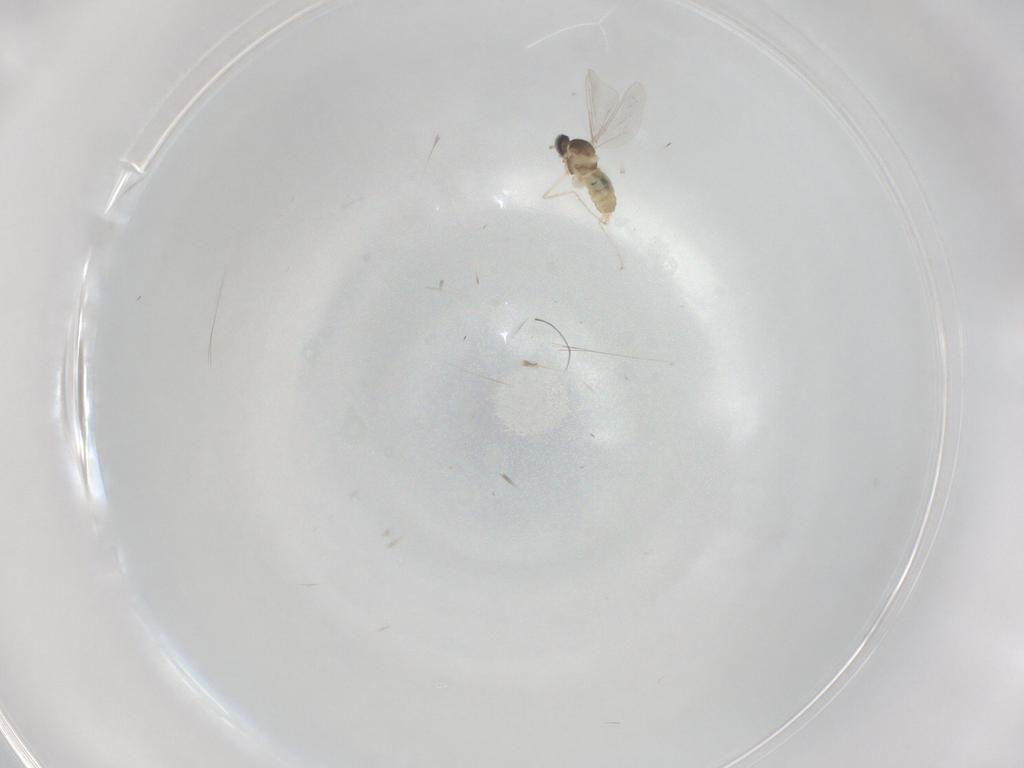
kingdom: Animalia
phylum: Arthropoda
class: Insecta
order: Diptera
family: Cecidomyiidae
